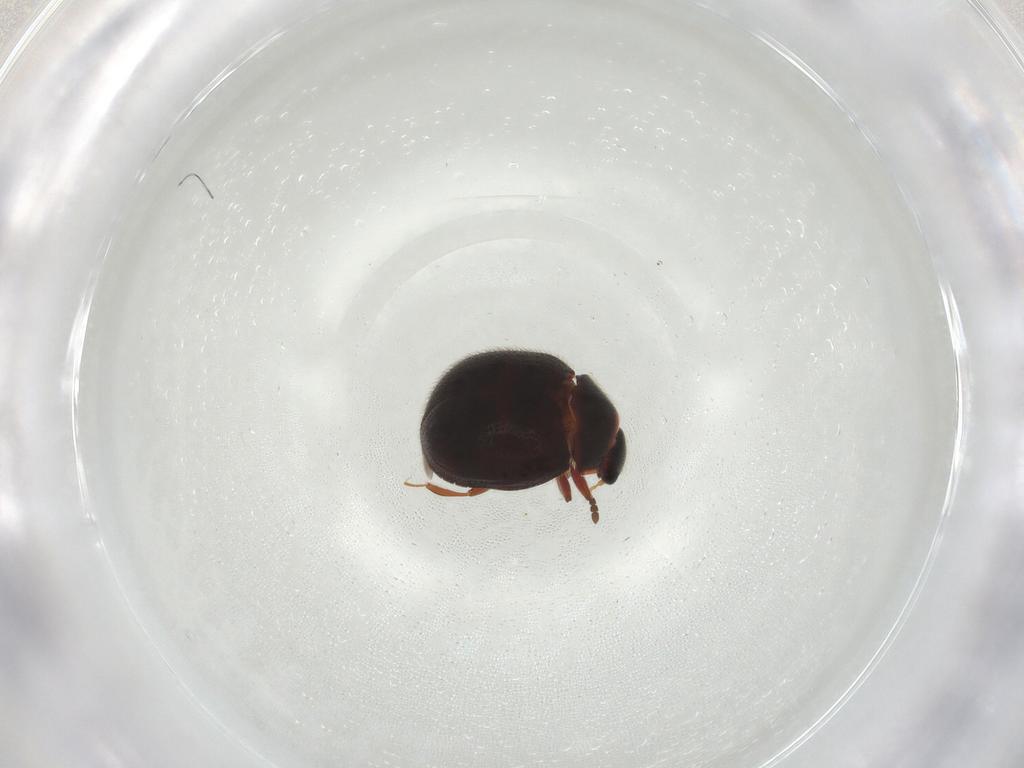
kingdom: Animalia
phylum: Arthropoda
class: Insecta
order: Coleoptera
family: Sphindidae
